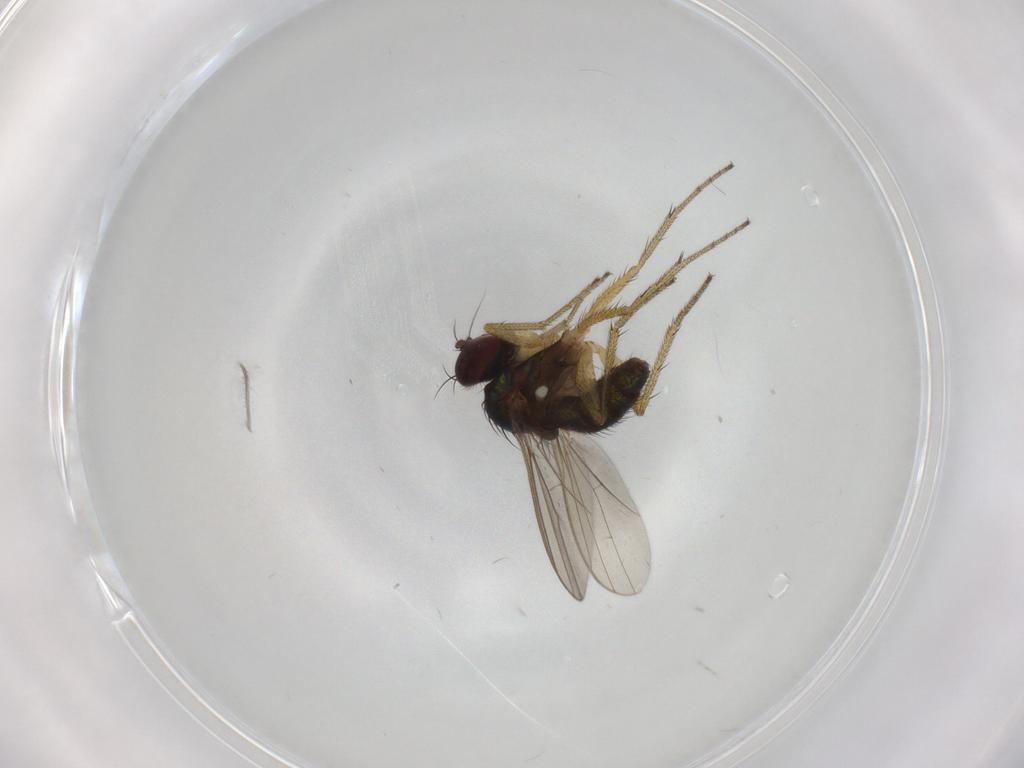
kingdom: Animalia
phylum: Arthropoda
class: Insecta
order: Diptera
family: Cecidomyiidae
